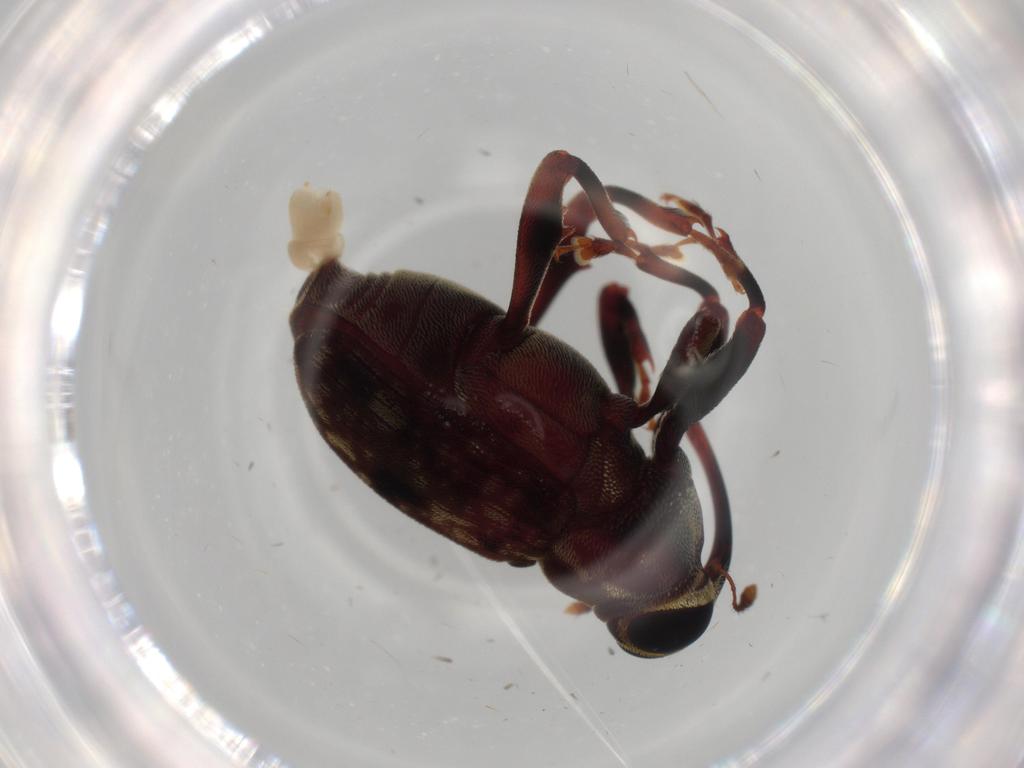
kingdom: Animalia
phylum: Arthropoda
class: Insecta
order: Coleoptera
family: Curculionidae
